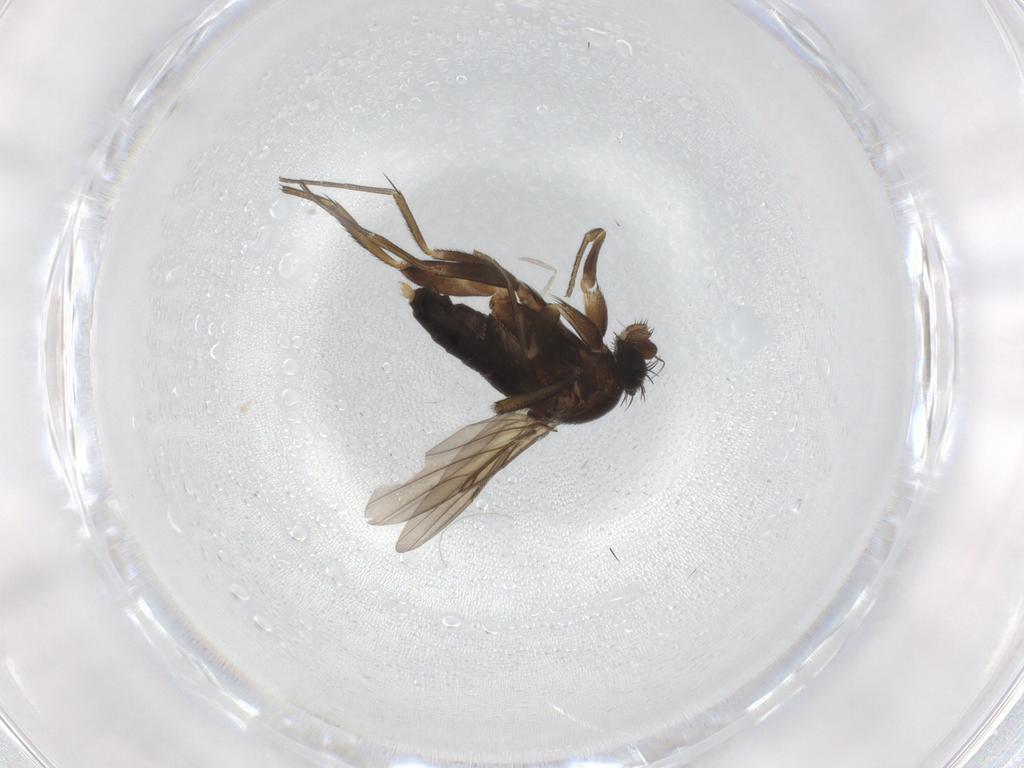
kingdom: Animalia
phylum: Arthropoda
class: Insecta
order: Diptera
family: Phoridae
